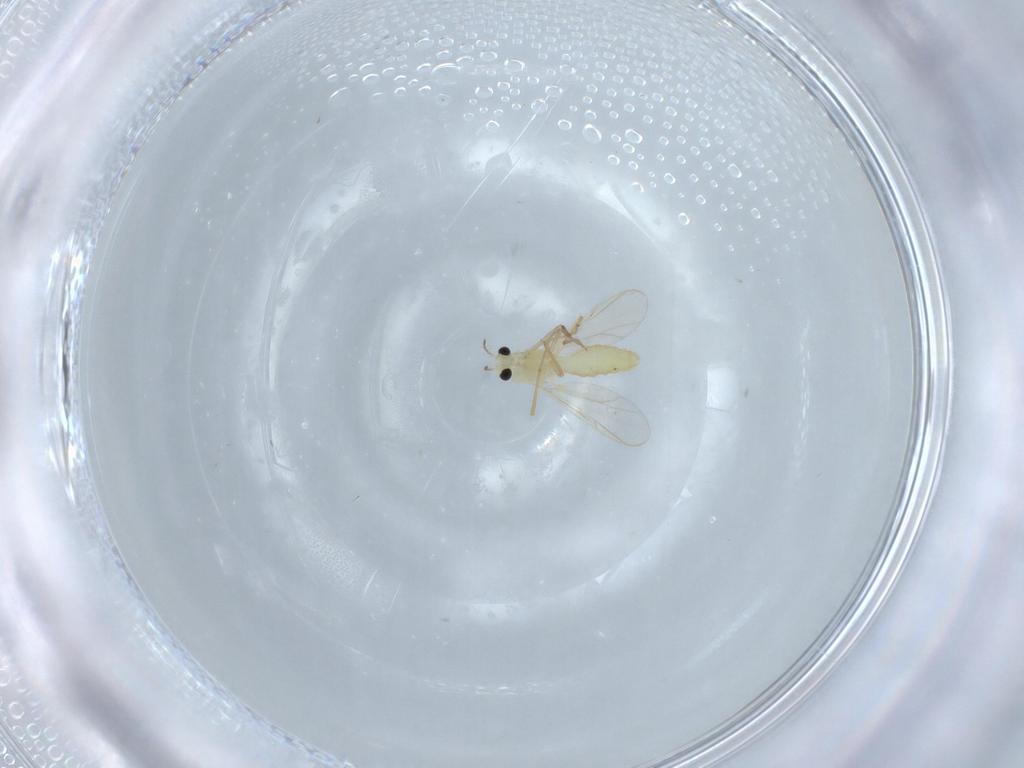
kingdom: Animalia
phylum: Arthropoda
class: Insecta
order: Diptera
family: Chironomidae
